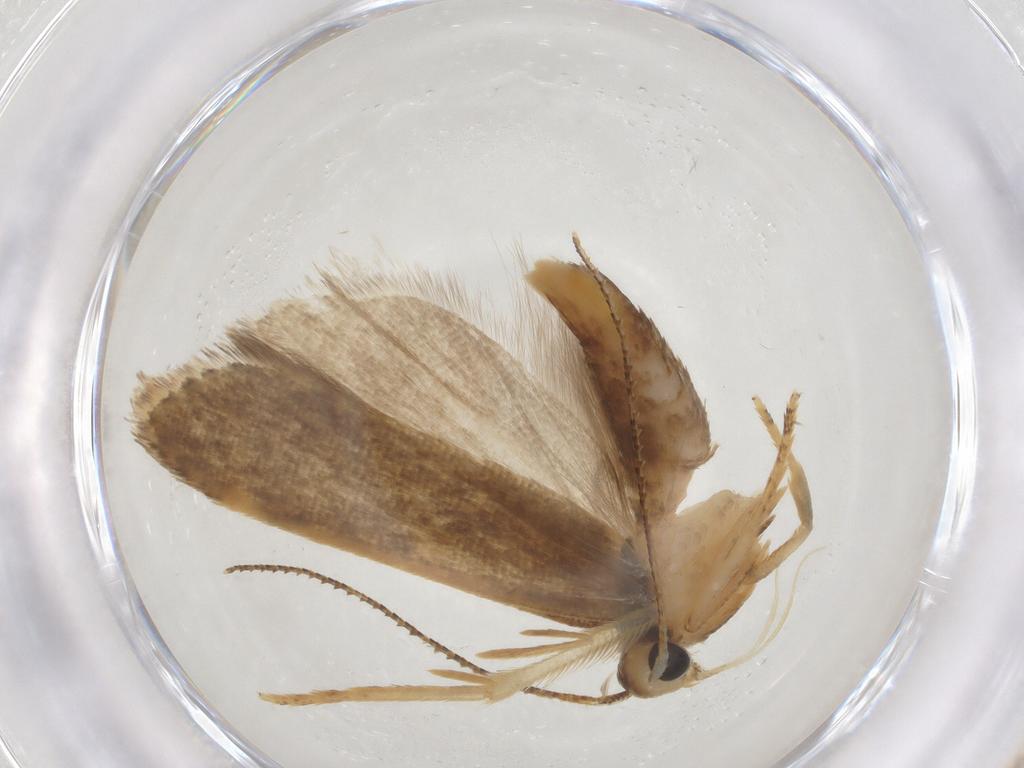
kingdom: Animalia
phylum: Arthropoda
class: Insecta
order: Lepidoptera
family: Gelechiidae
